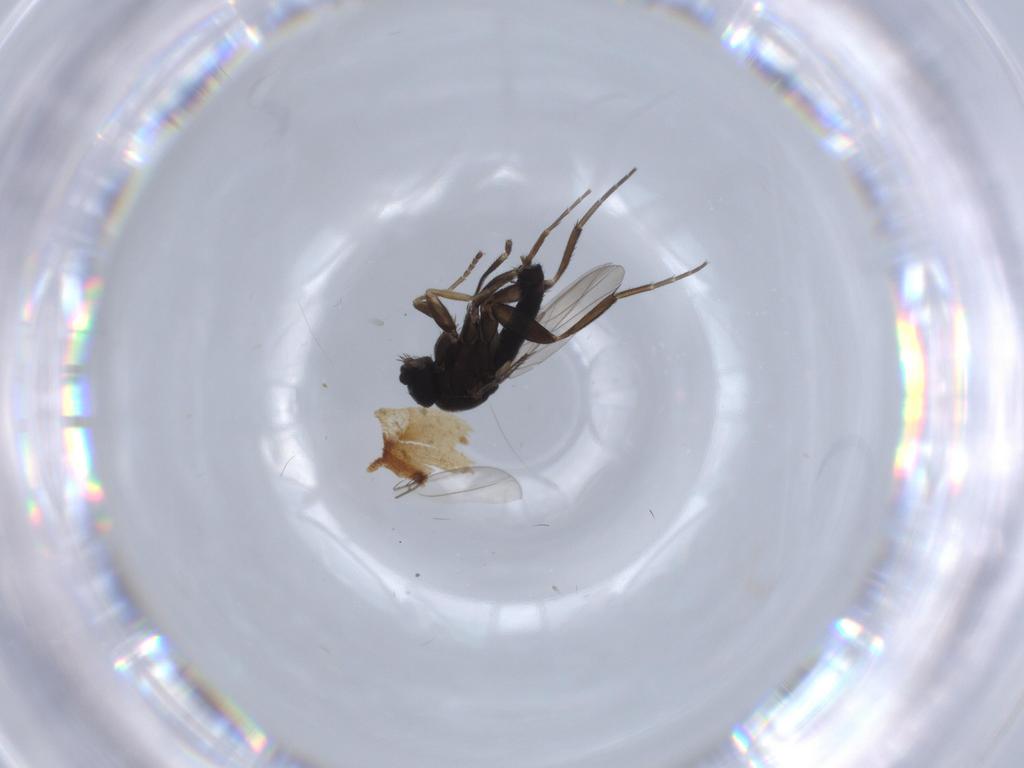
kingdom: Animalia
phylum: Arthropoda
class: Insecta
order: Diptera
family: Phoridae
